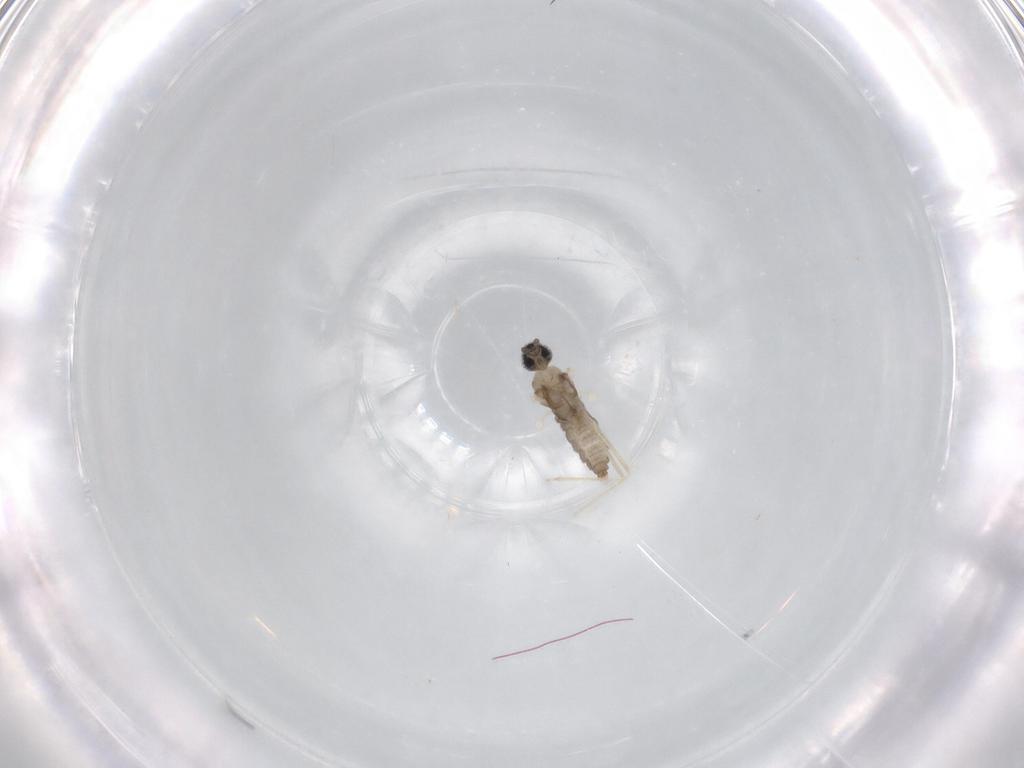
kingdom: Animalia
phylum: Arthropoda
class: Insecta
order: Diptera
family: Cecidomyiidae
